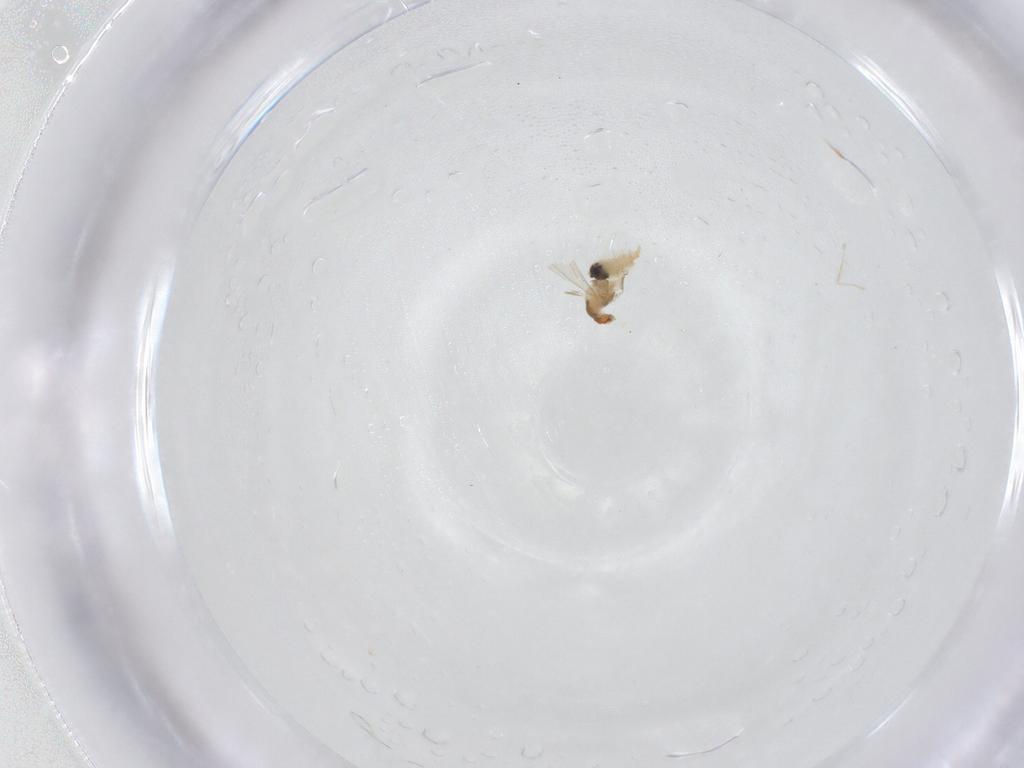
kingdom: Animalia
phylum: Arthropoda
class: Insecta
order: Diptera
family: Cecidomyiidae
